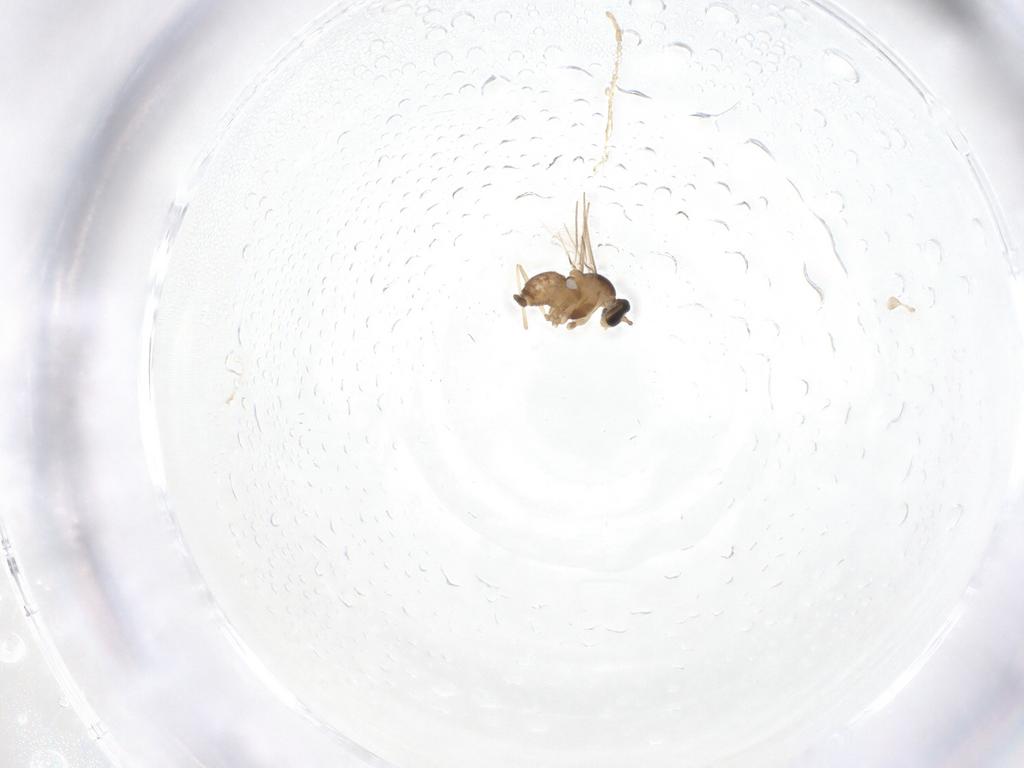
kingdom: Animalia
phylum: Arthropoda
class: Insecta
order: Diptera
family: Cecidomyiidae
